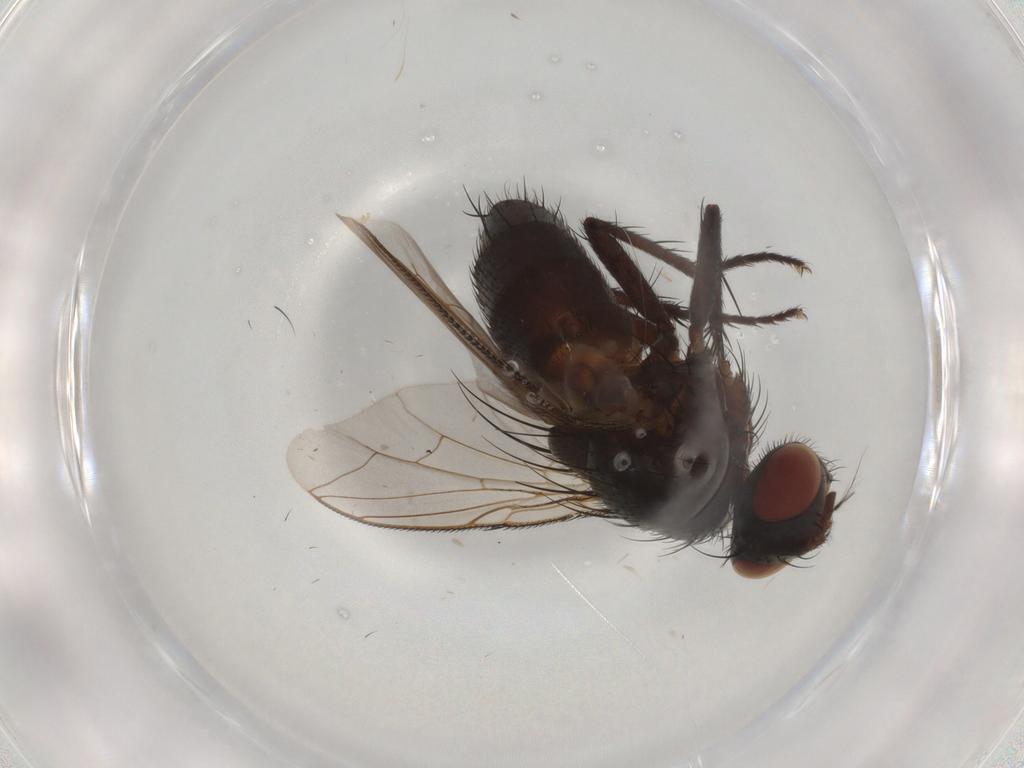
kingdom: Animalia
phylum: Arthropoda
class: Insecta
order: Diptera
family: Sarcophagidae
